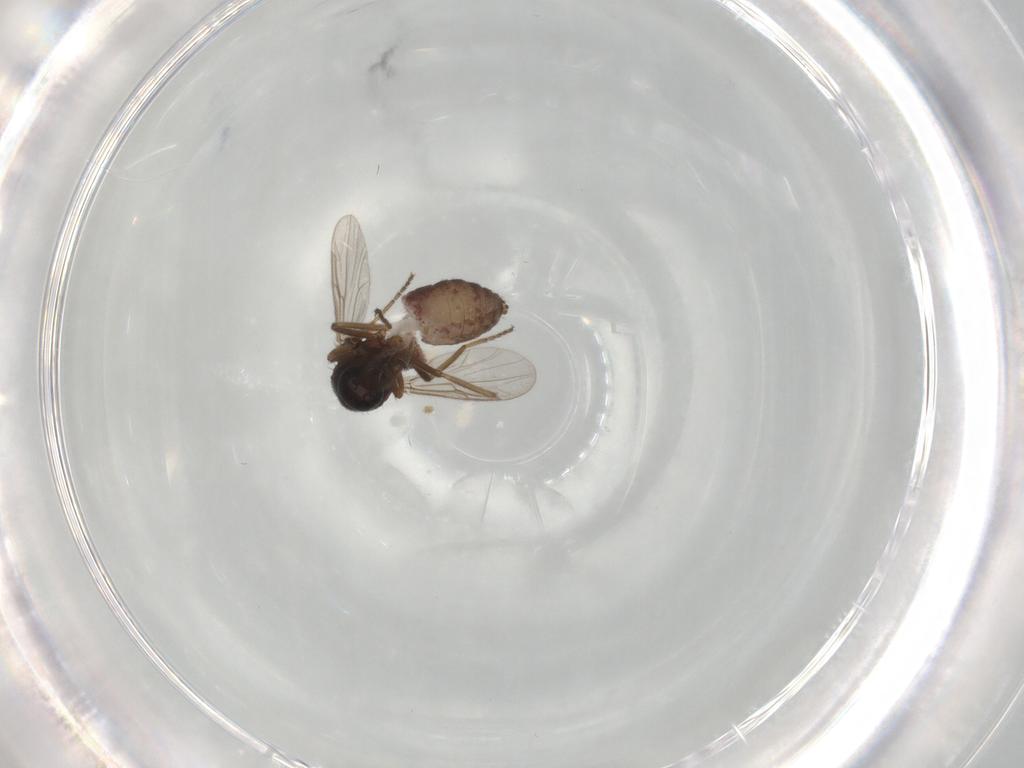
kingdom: Animalia
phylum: Arthropoda
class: Insecta
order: Diptera
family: Ceratopogonidae
